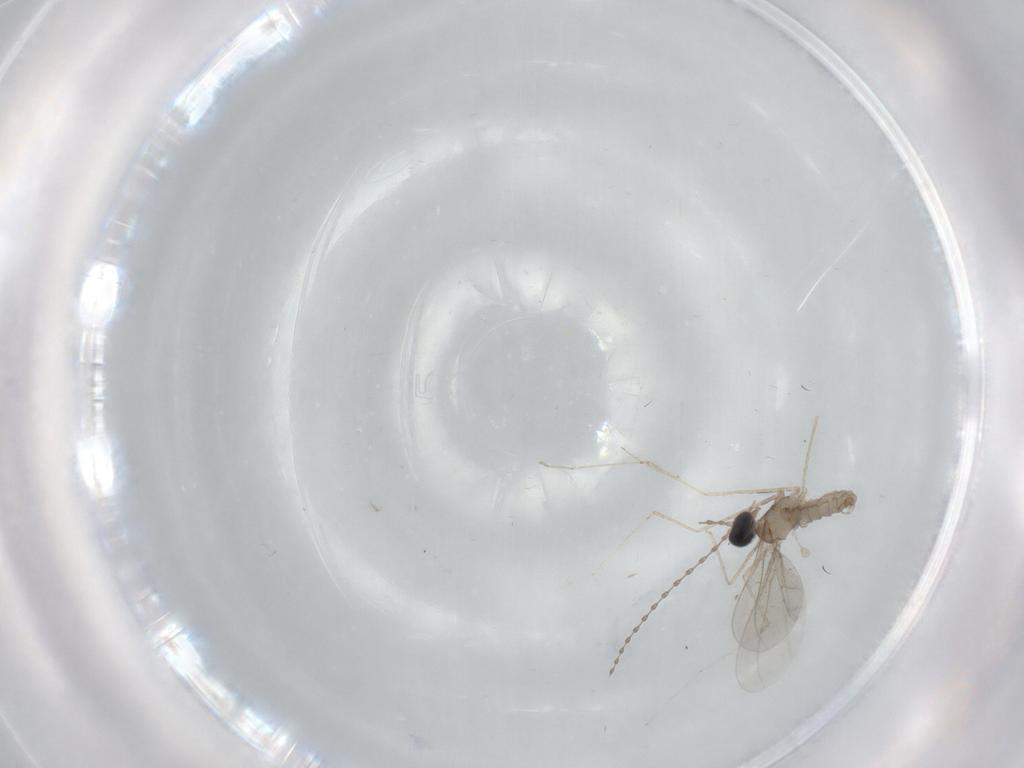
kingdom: Animalia
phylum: Arthropoda
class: Insecta
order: Diptera
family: Cecidomyiidae
